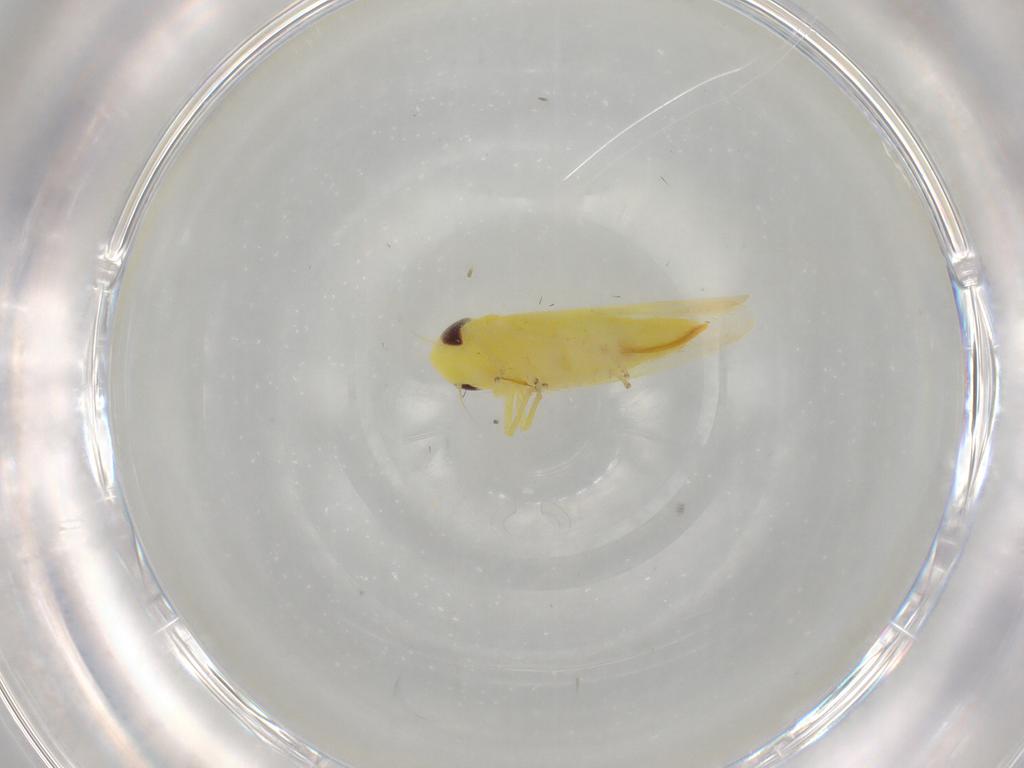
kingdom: Animalia
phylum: Arthropoda
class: Insecta
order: Hemiptera
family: Cicadellidae
